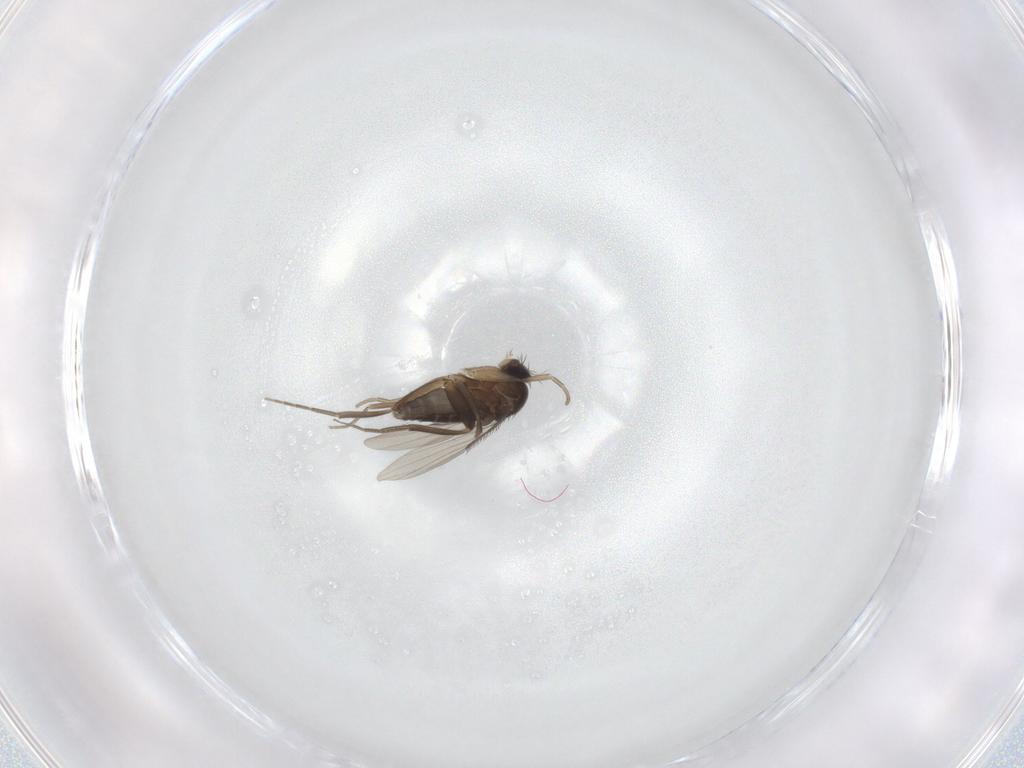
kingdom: Animalia
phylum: Arthropoda
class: Insecta
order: Diptera
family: Phoridae
